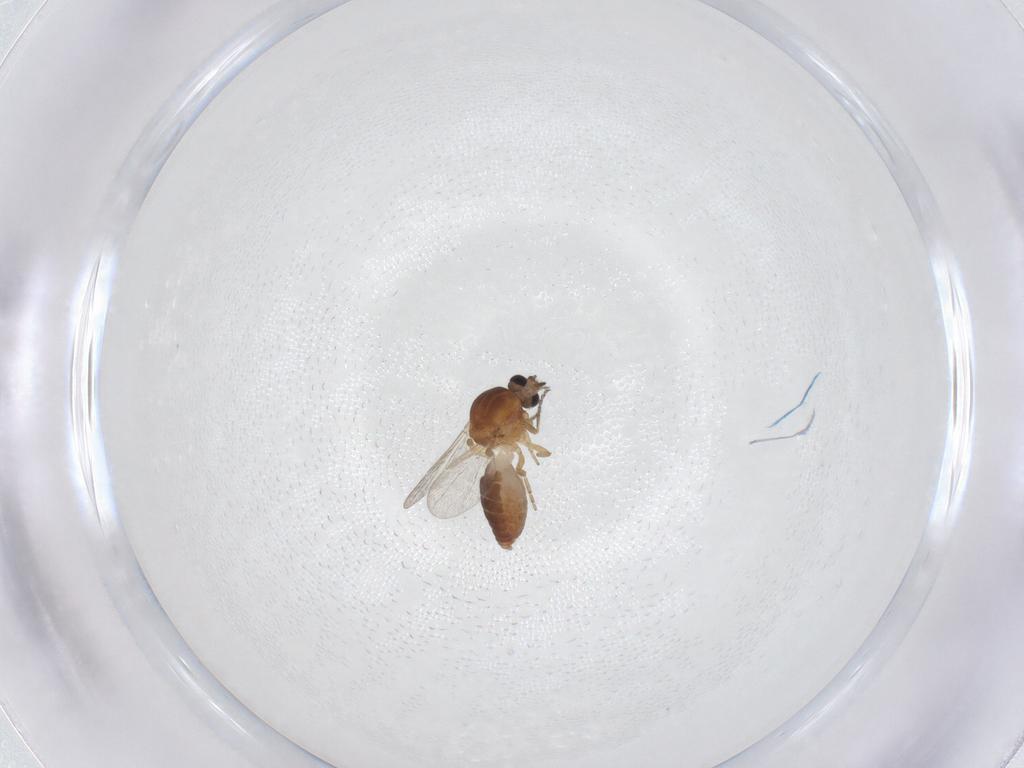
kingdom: Animalia
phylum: Arthropoda
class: Insecta
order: Diptera
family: Ceratopogonidae
